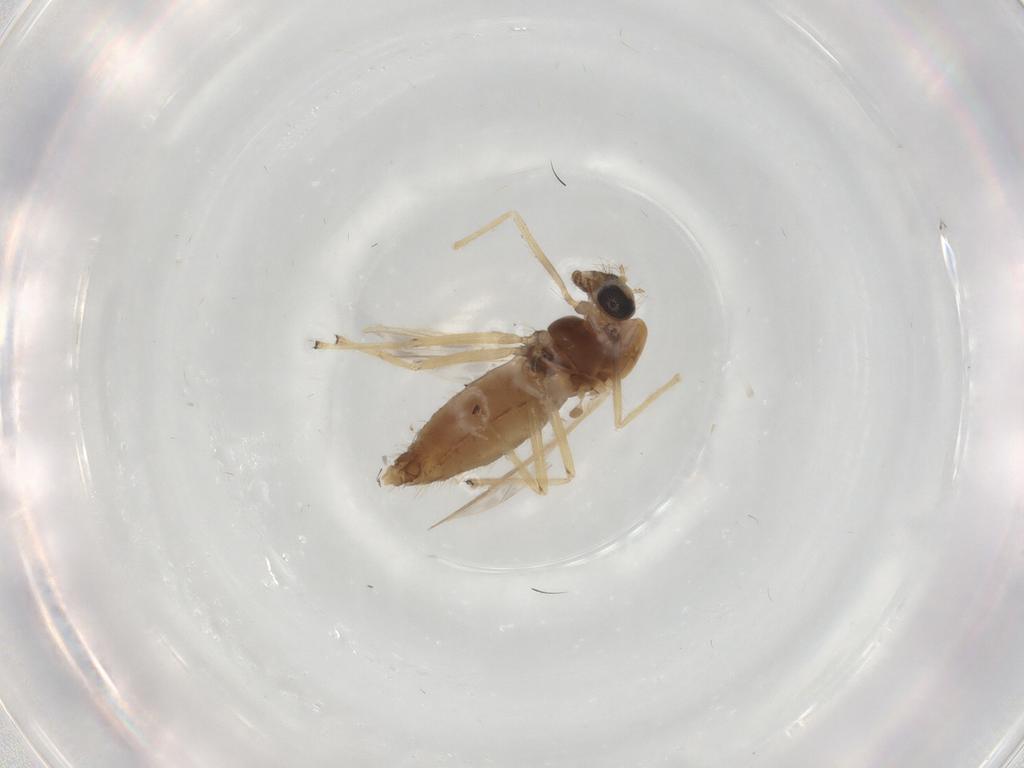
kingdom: Animalia
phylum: Arthropoda
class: Insecta
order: Diptera
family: Chironomidae
